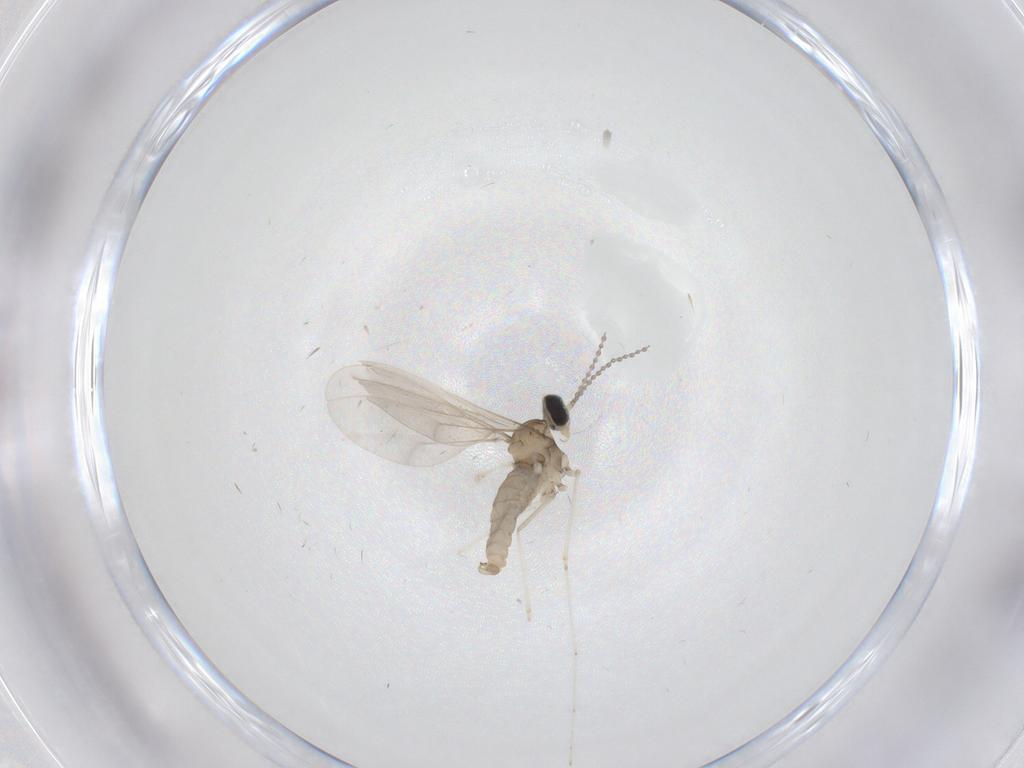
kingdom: Animalia
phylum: Arthropoda
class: Insecta
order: Diptera
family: Cecidomyiidae
